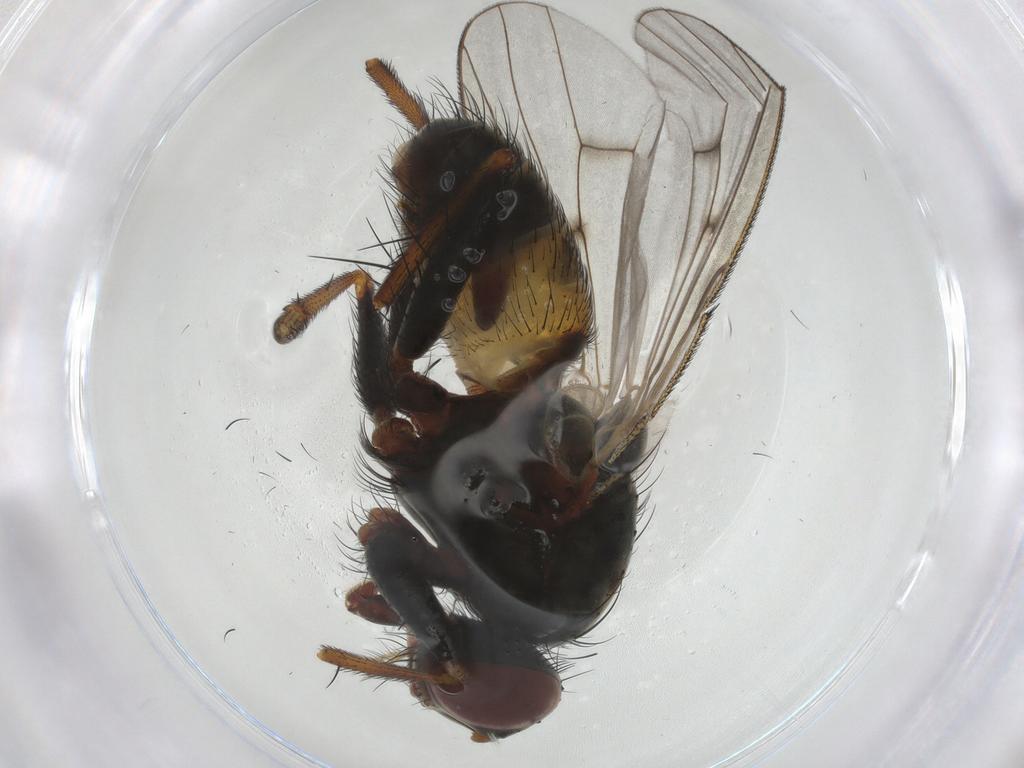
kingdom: Animalia
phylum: Arthropoda
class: Insecta
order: Diptera
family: Muscidae
